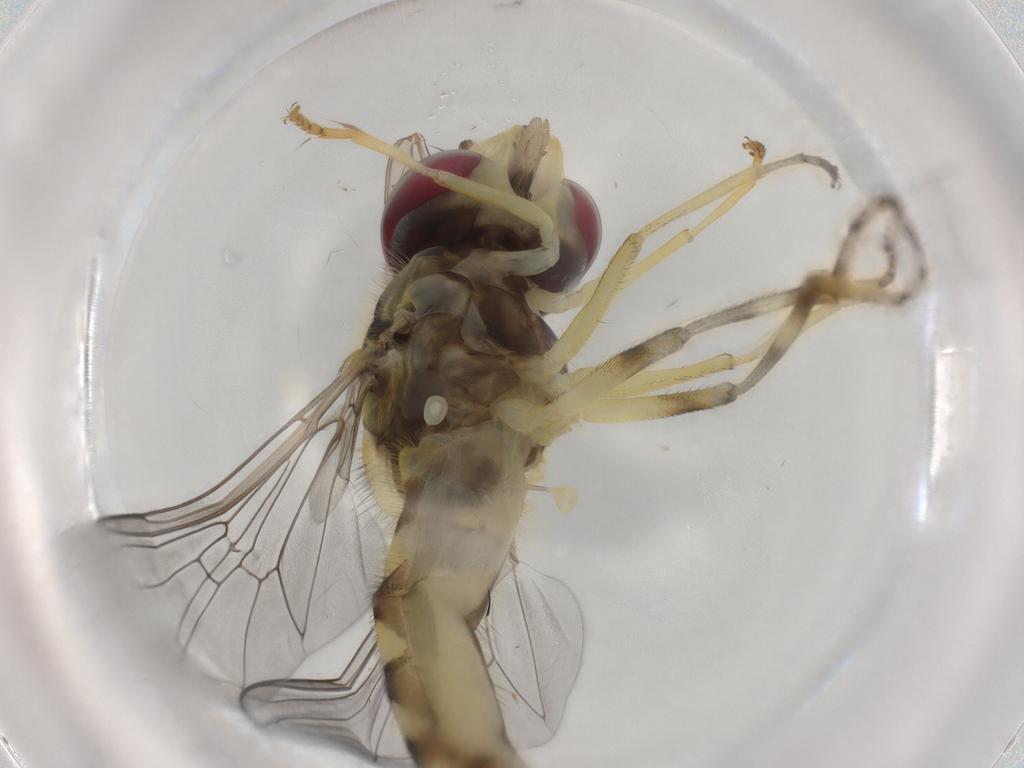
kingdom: Animalia
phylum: Arthropoda
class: Insecta
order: Diptera
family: Syrphidae
